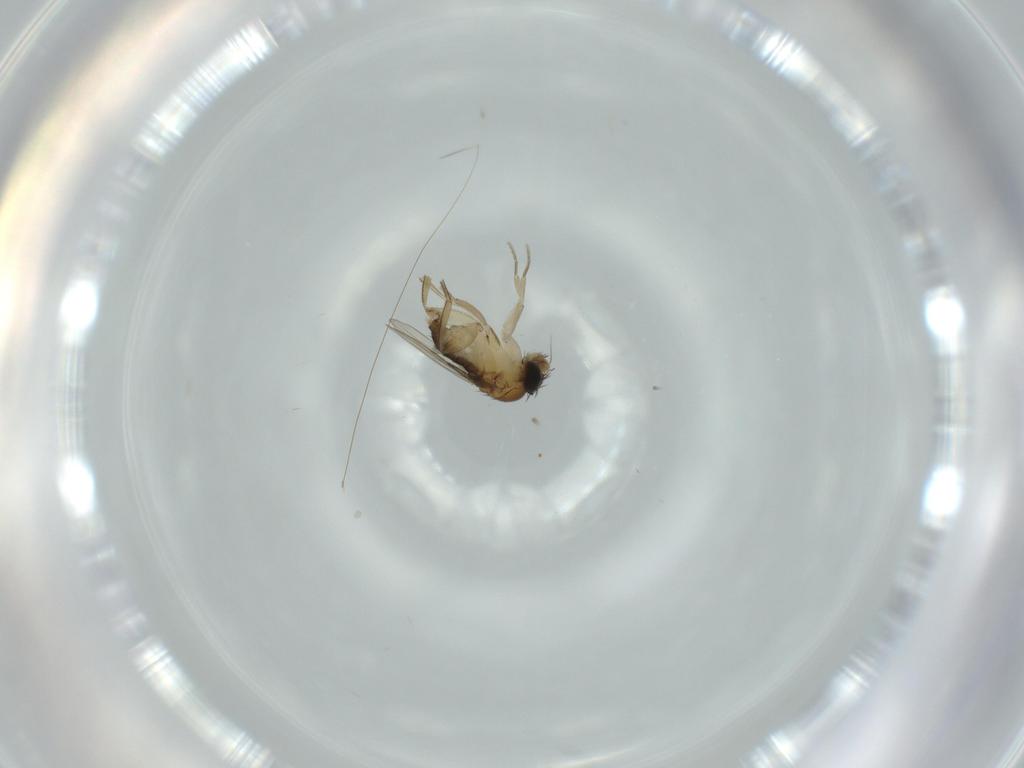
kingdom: Animalia
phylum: Arthropoda
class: Insecta
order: Diptera
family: Phoridae
